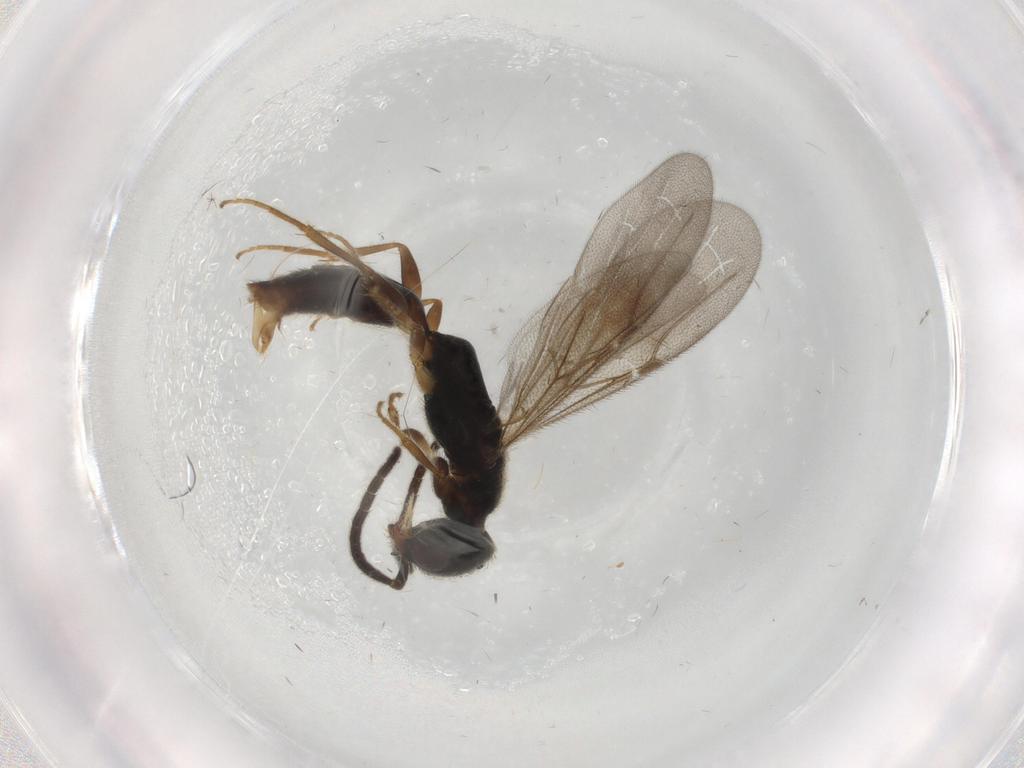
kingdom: Animalia
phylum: Arthropoda
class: Insecta
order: Hymenoptera
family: Bethylidae
